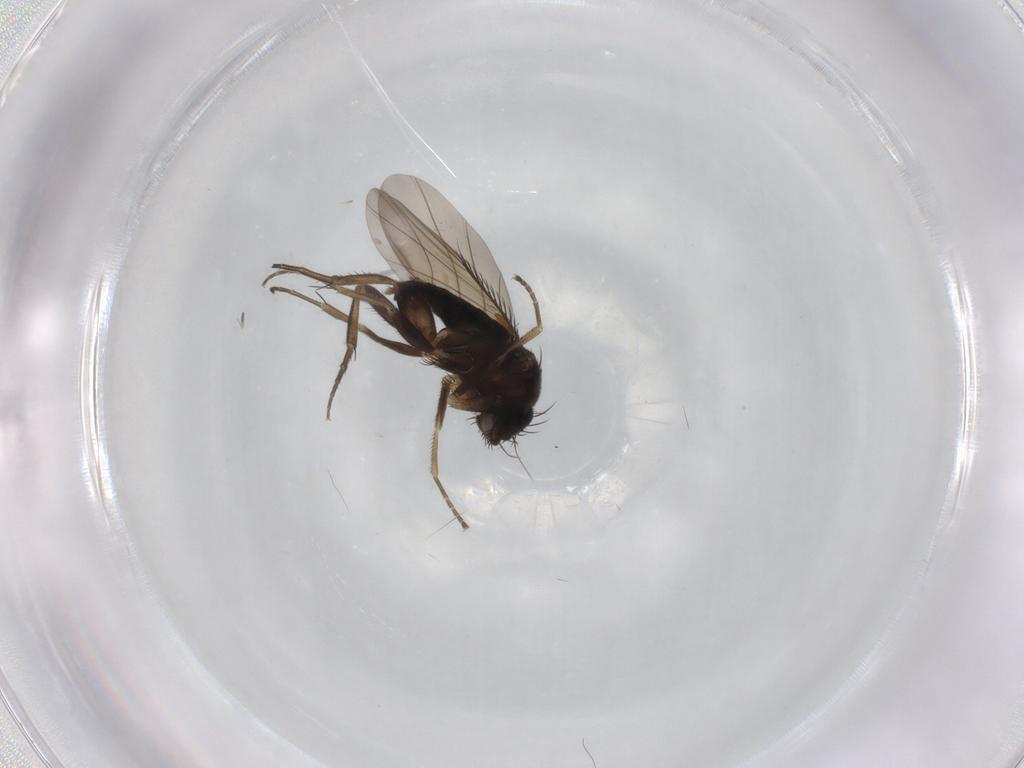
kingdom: Animalia
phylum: Arthropoda
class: Insecta
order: Diptera
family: Phoridae
